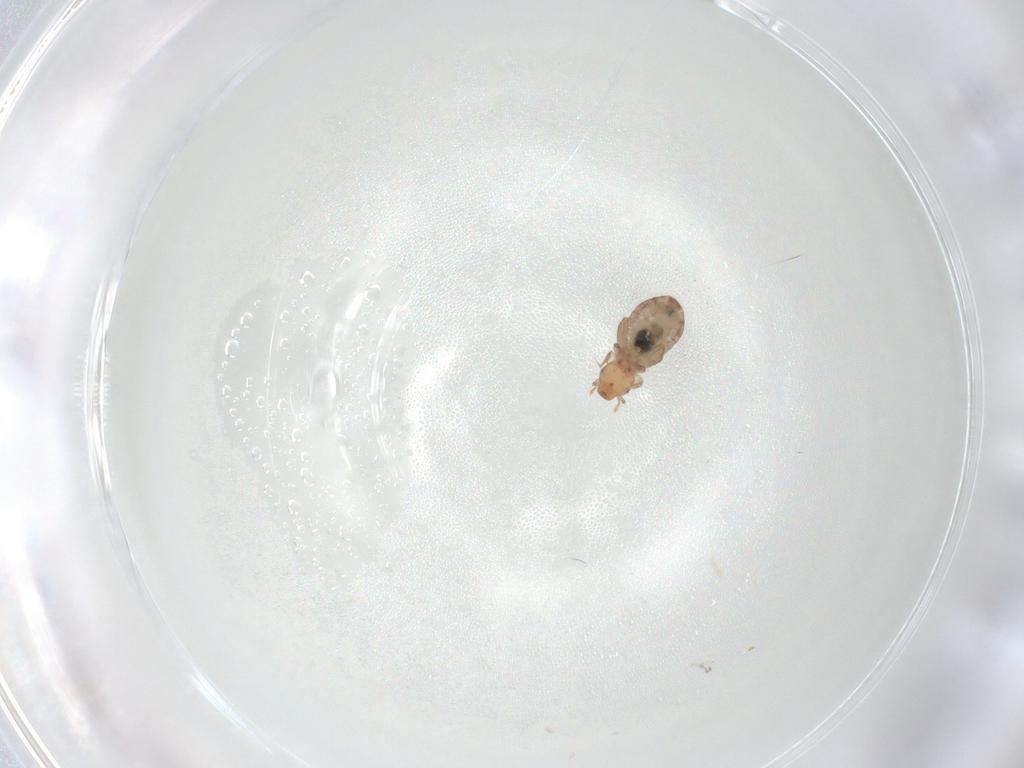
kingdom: Animalia
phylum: Arthropoda
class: Insecta
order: Psocodea
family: Liposcelididae
